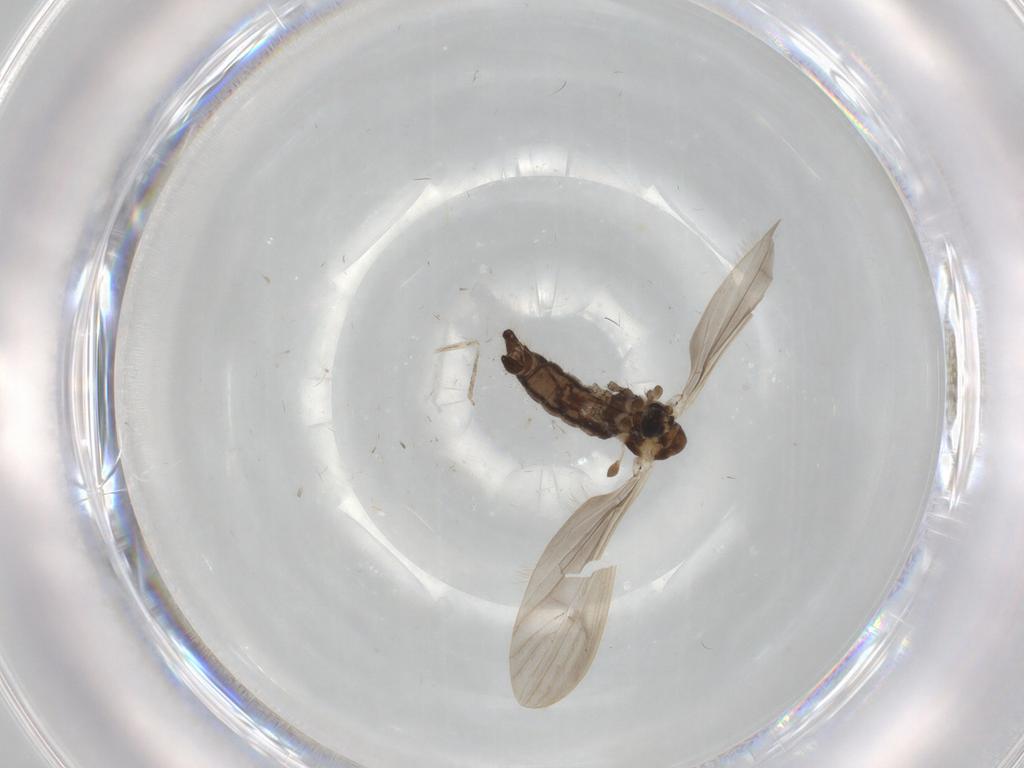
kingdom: Animalia
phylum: Arthropoda
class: Insecta
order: Diptera
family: Limoniidae
